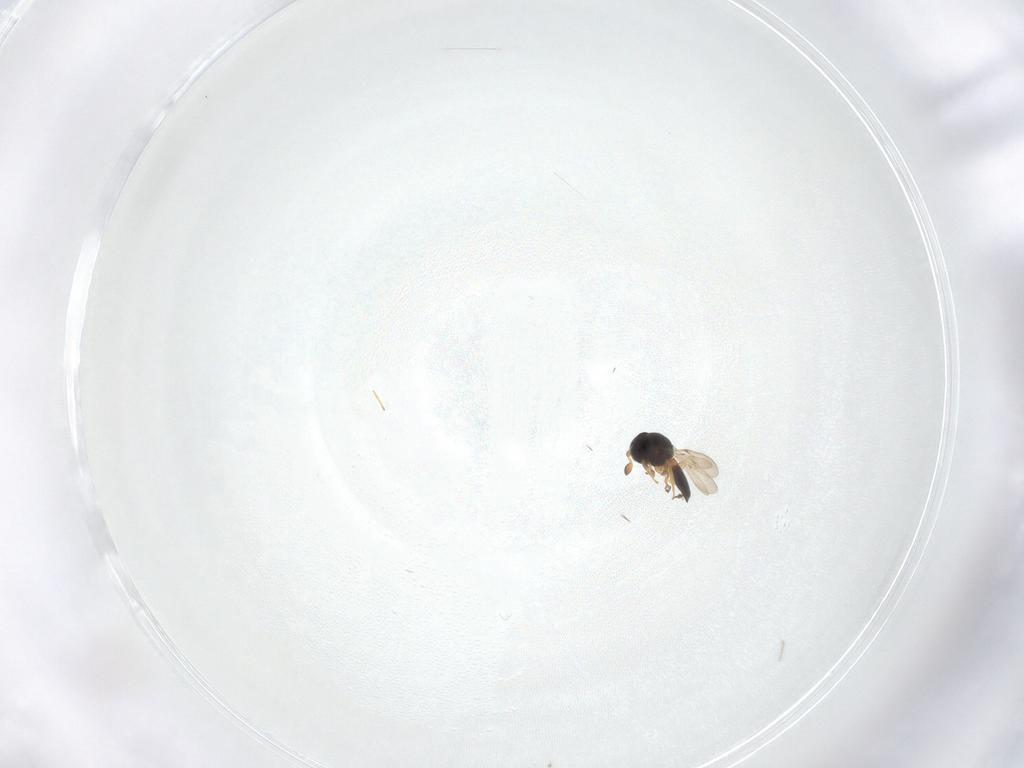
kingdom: Animalia
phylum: Arthropoda
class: Insecta
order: Hymenoptera
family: Scelionidae
